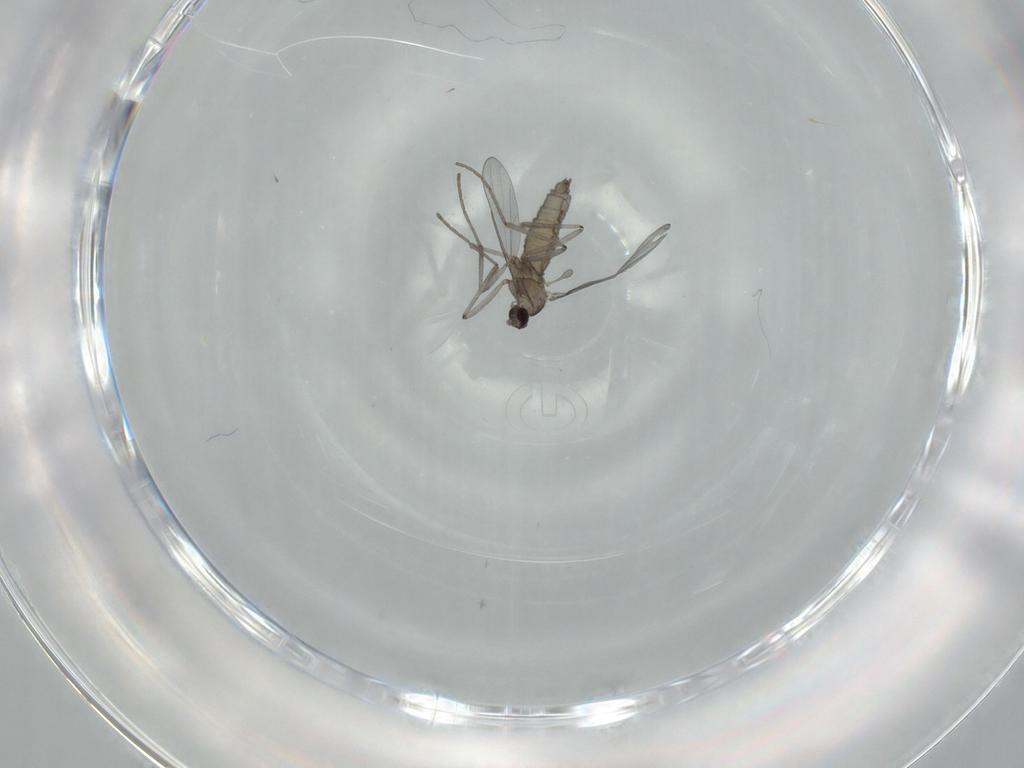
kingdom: Animalia
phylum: Arthropoda
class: Insecta
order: Diptera
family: Cecidomyiidae
